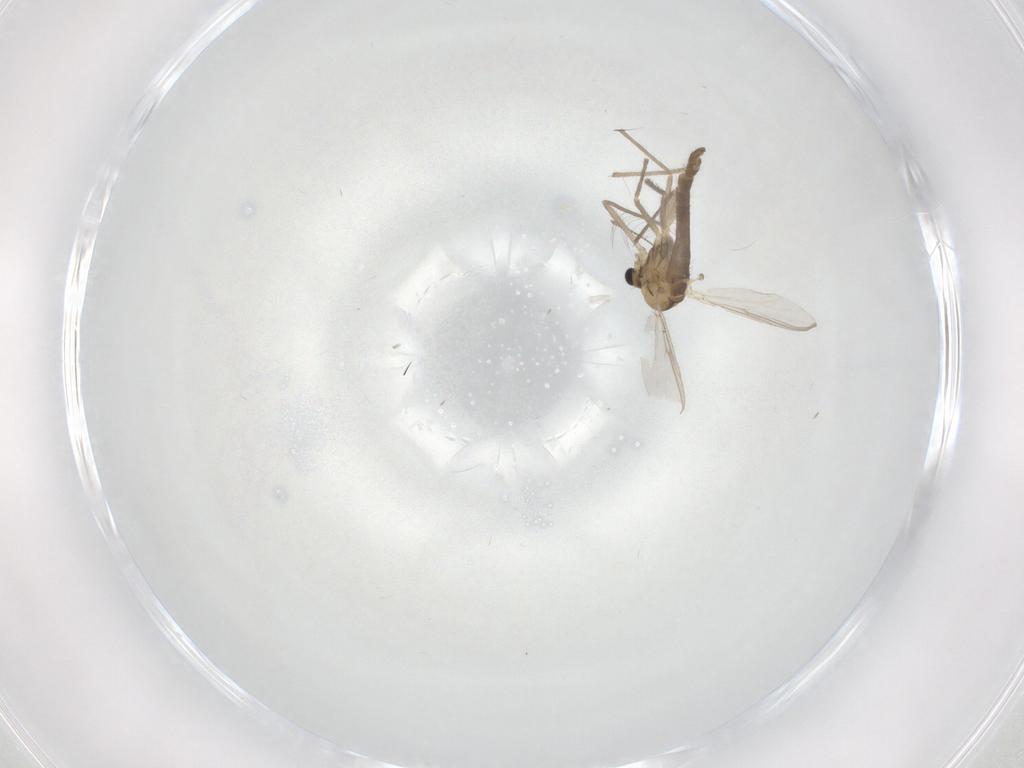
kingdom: Animalia
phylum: Arthropoda
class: Insecta
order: Diptera
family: Chironomidae
